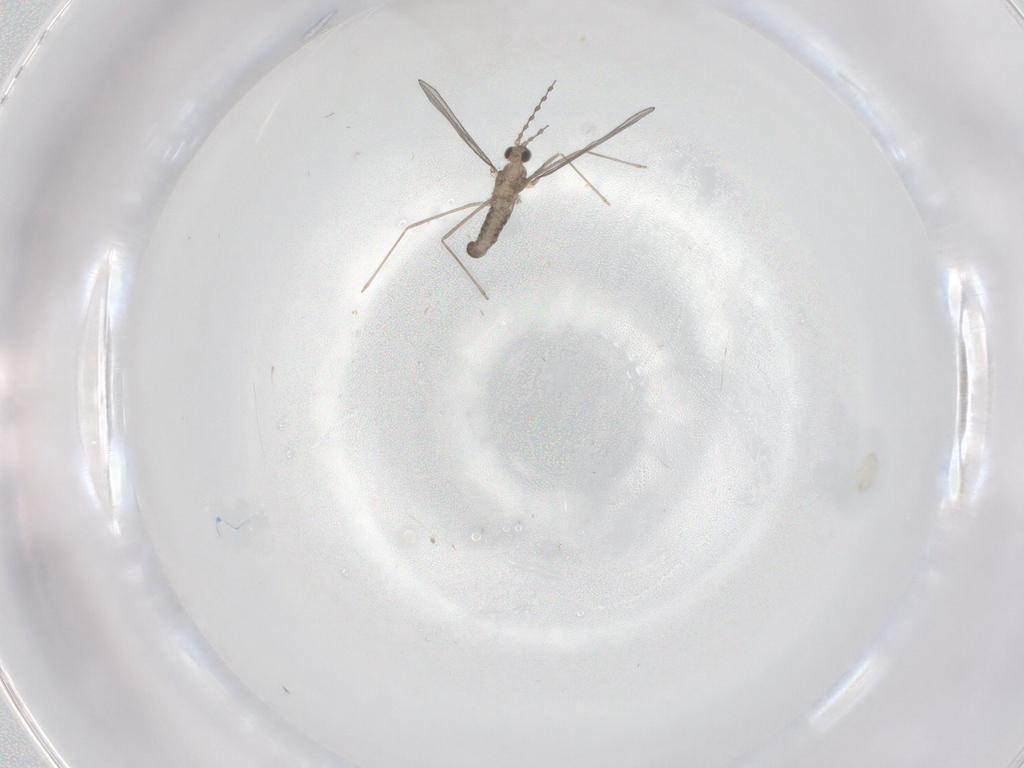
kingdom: Animalia
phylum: Arthropoda
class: Insecta
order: Diptera
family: Cecidomyiidae
